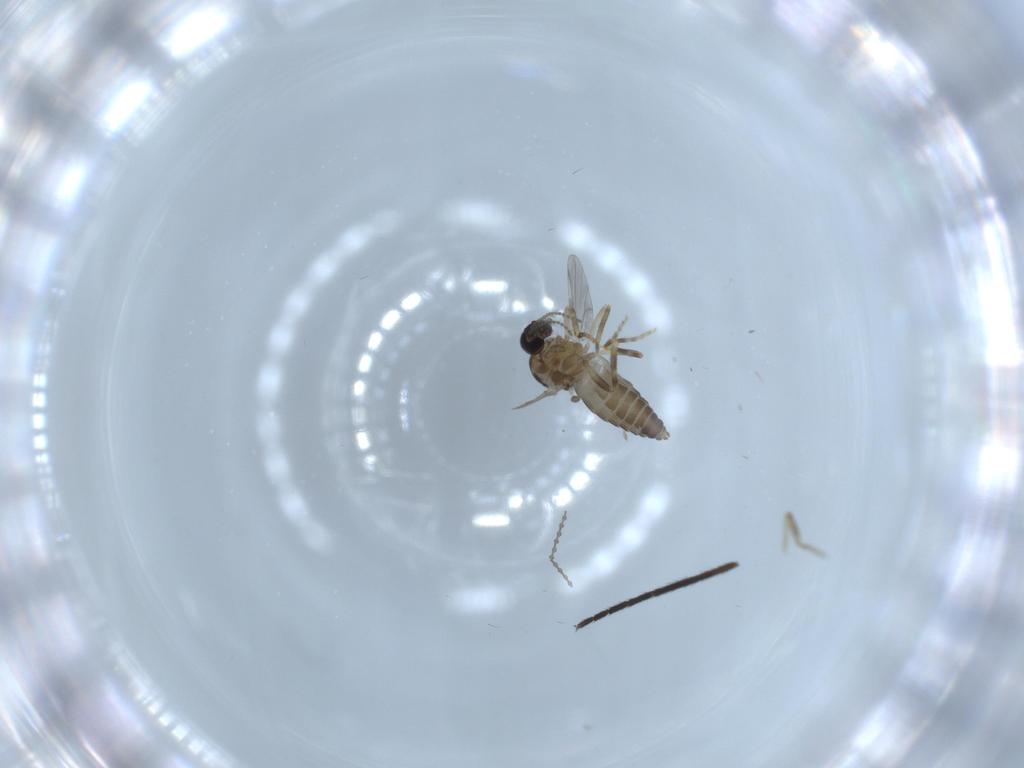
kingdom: Animalia
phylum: Arthropoda
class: Insecta
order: Diptera
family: Ceratopogonidae
